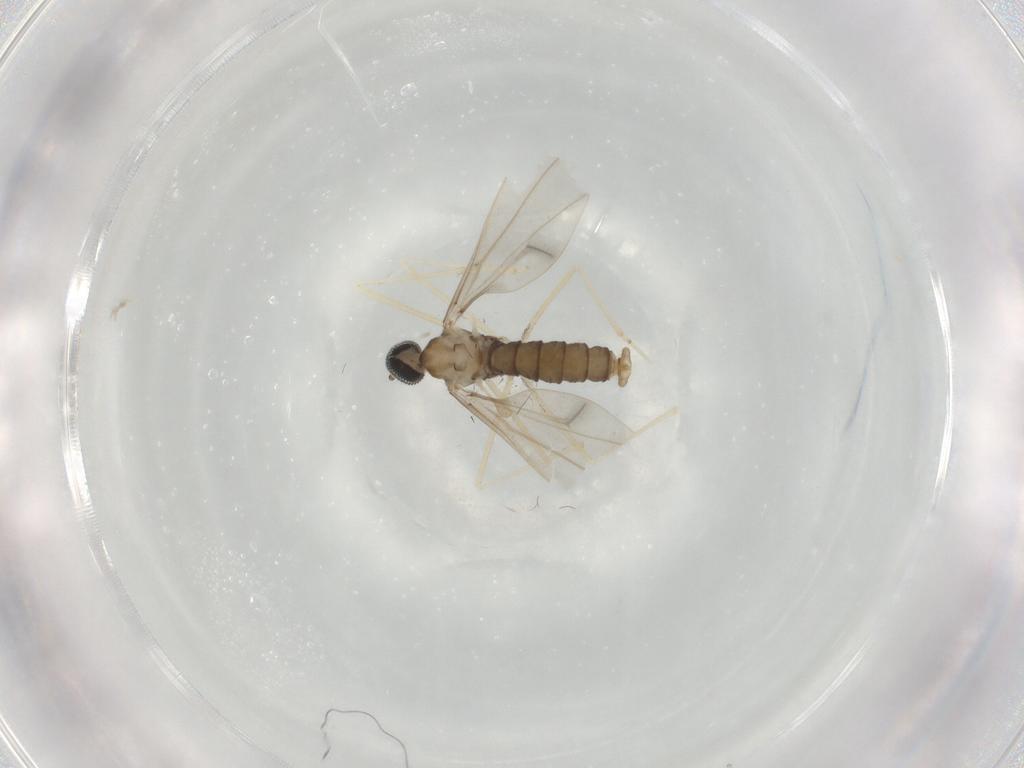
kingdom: Animalia
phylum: Arthropoda
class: Insecta
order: Diptera
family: Cecidomyiidae
